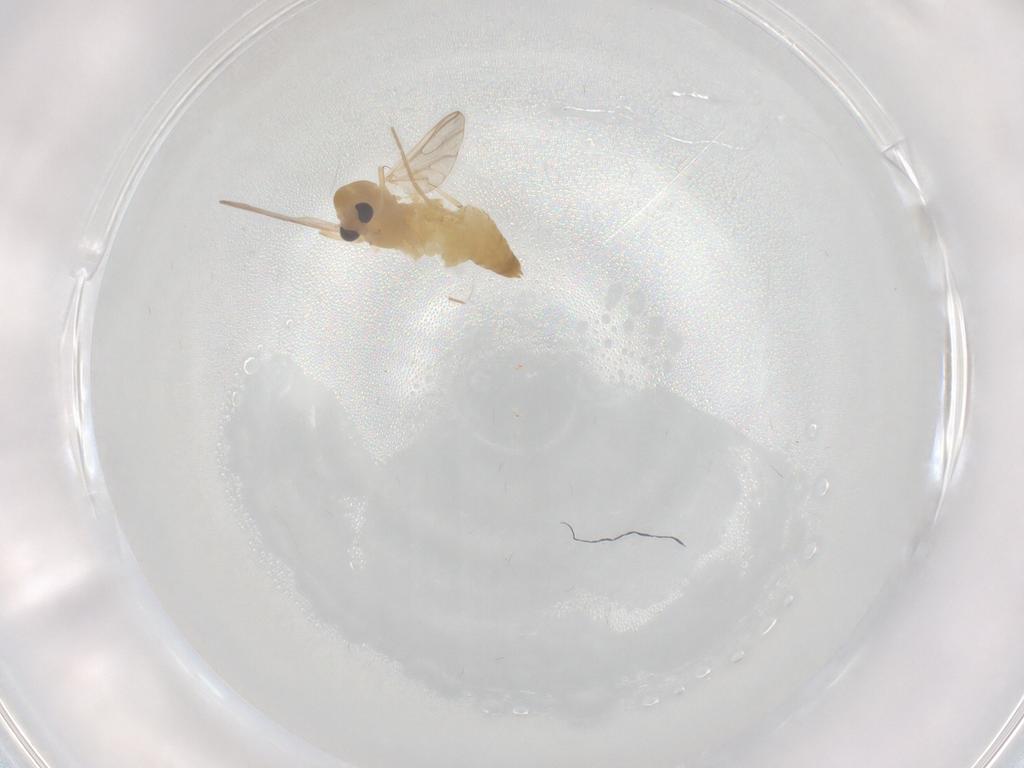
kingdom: Animalia
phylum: Arthropoda
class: Insecta
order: Diptera
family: Chironomidae
